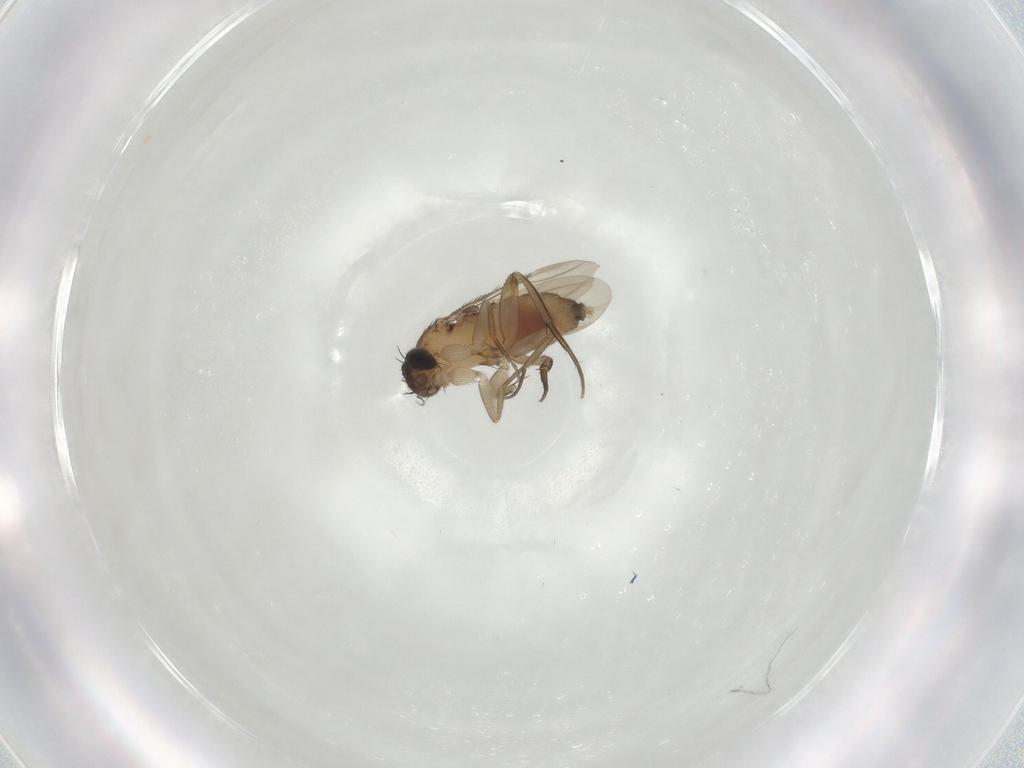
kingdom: Animalia
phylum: Arthropoda
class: Insecta
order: Diptera
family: Phoridae
